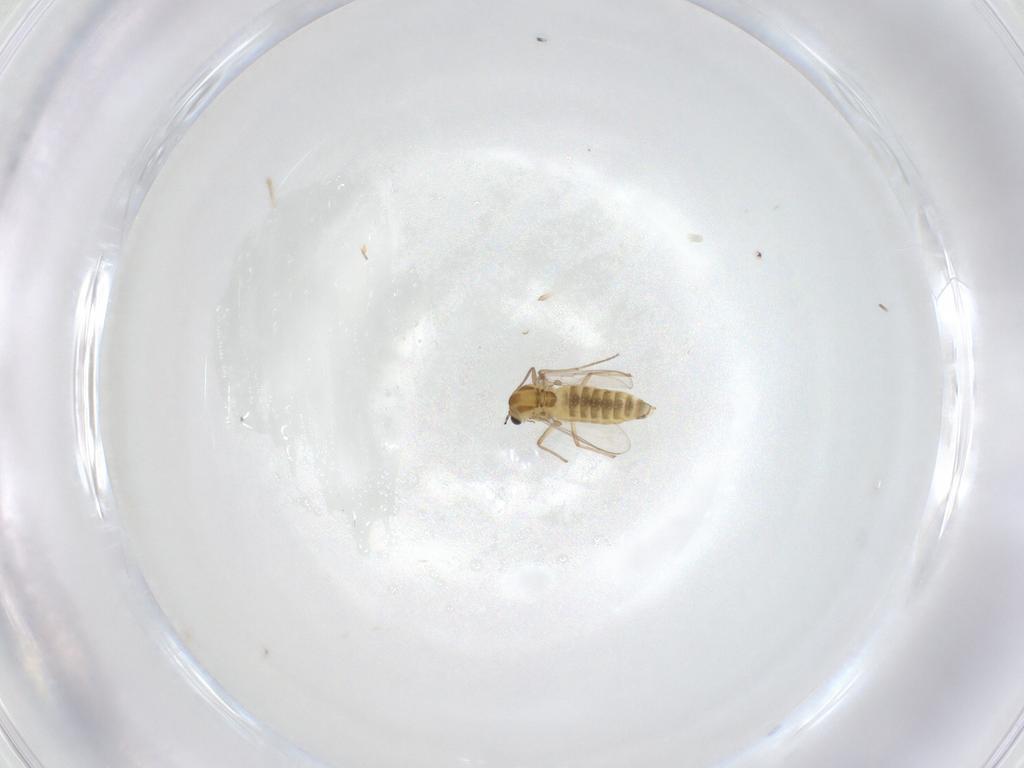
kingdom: Animalia
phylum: Arthropoda
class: Insecta
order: Diptera
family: Chironomidae
